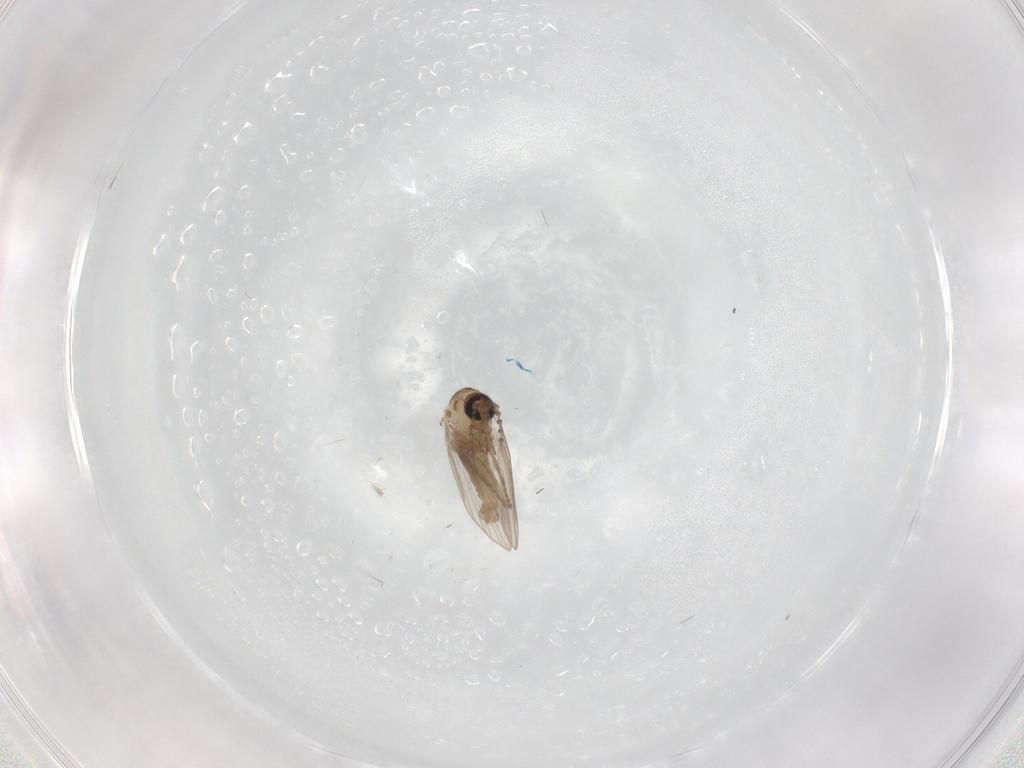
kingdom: Animalia
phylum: Arthropoda
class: Insecta
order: Diptera
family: Psychodidae
